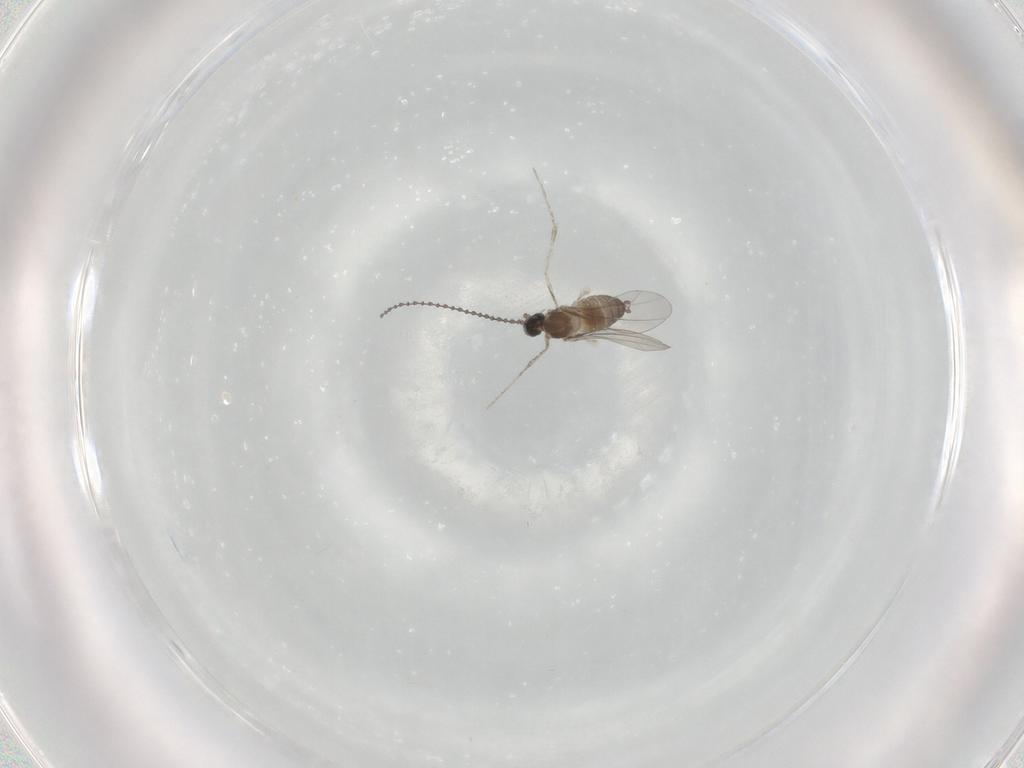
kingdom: Animalia
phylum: Arthropoda
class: Insecta
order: Diptera
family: Cecidomyiidae
